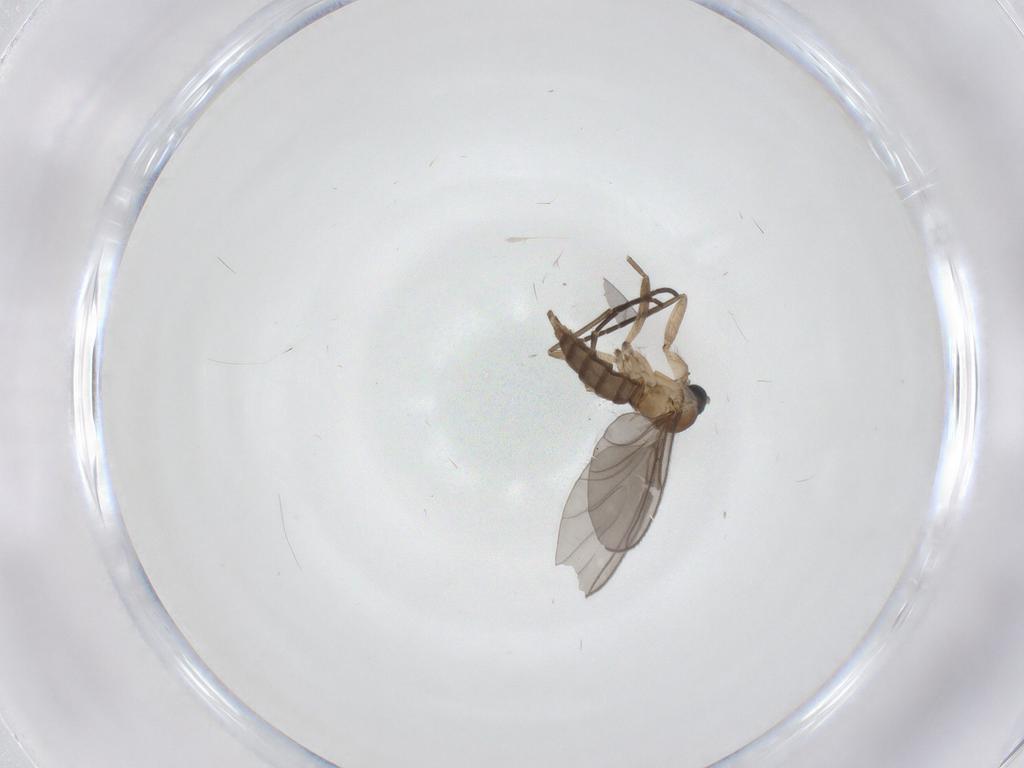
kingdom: Animalia
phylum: Arthropoda
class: Insecta
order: Diptera
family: Sciaridae
